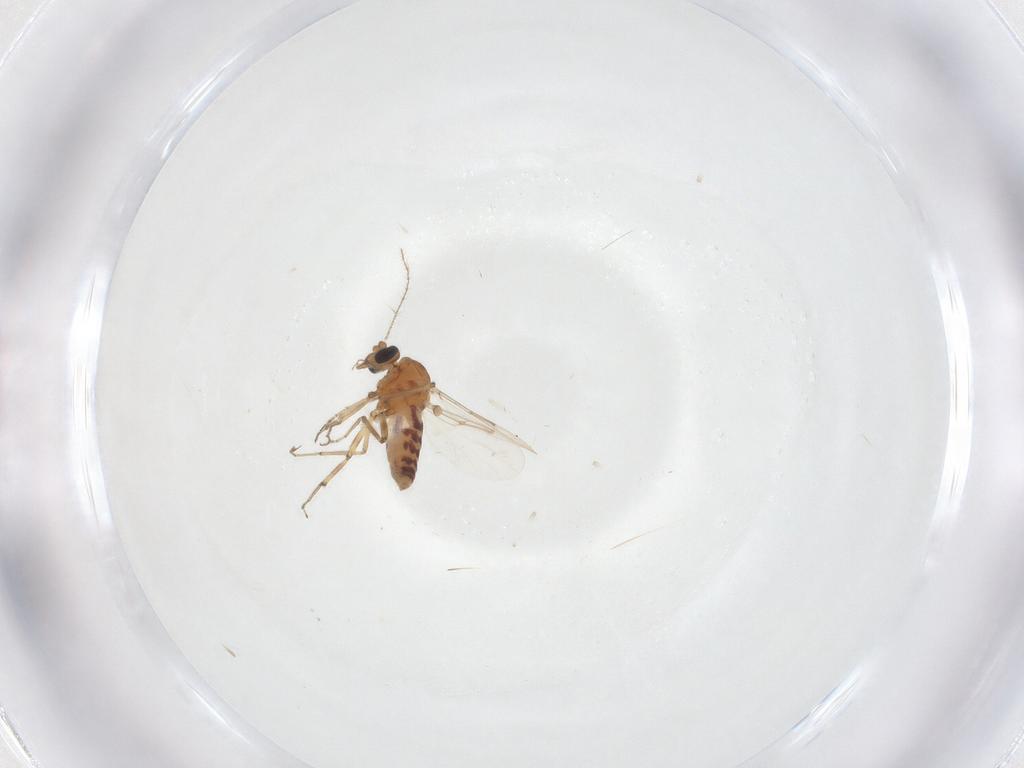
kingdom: Animalia
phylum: Arthropoda
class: Insecta
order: Diptera
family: Ceratopogonidae
